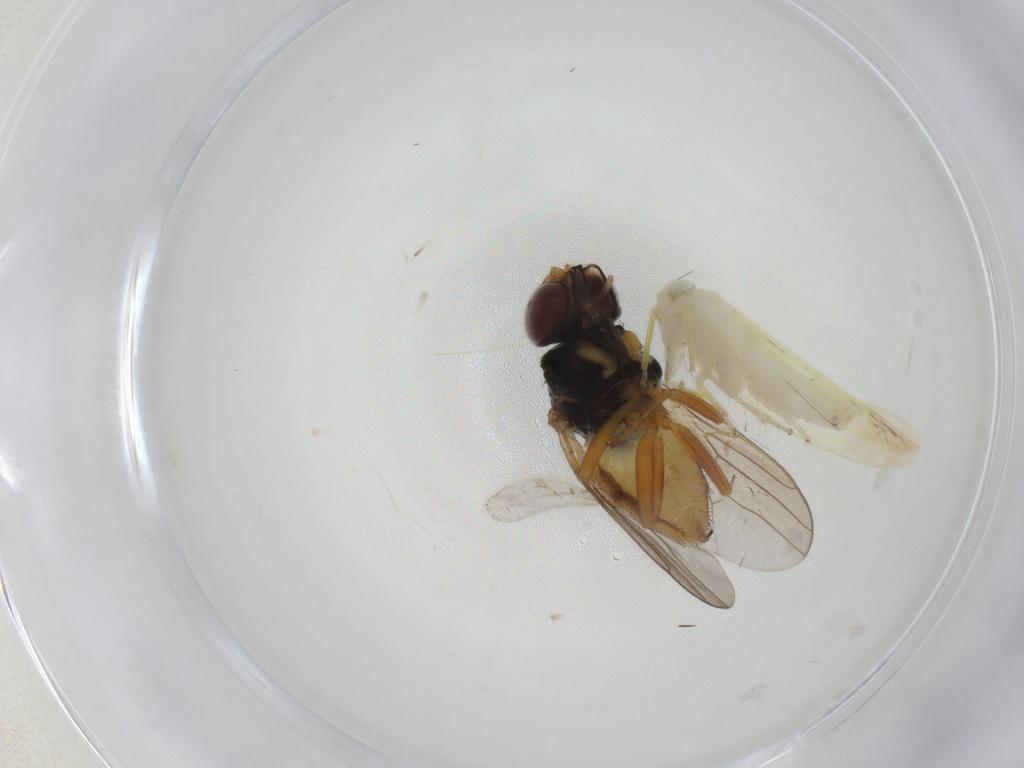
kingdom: Animalia
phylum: Arthropoda
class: Insecta
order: Diptera
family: Chloropidae
